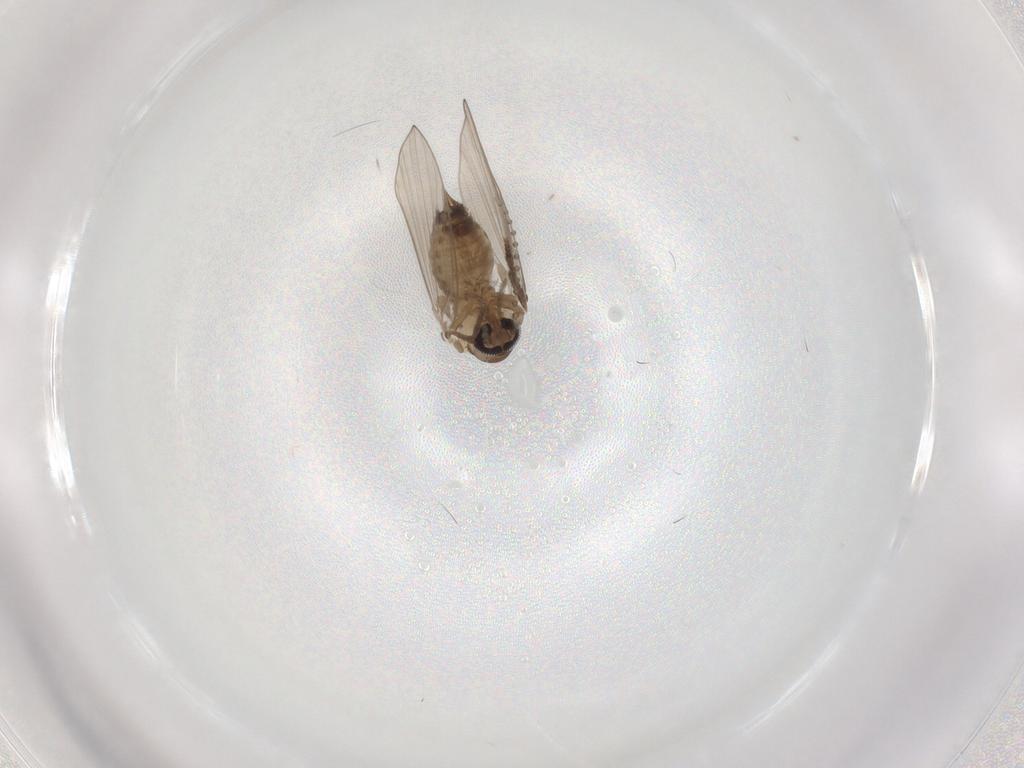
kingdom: Animalia
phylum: Arthropoda
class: Insecta
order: Diptera
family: Psychodidae
